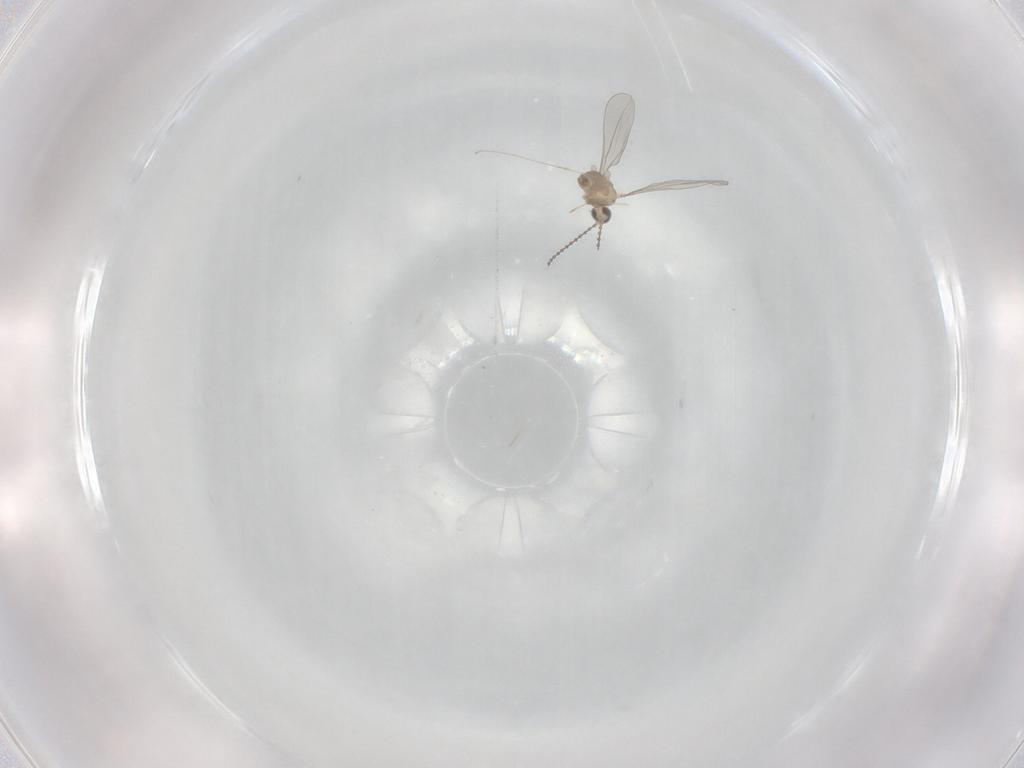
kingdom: Animalia
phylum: Arthropoda
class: Insecta
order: Diptera
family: Cecidomyiidae
